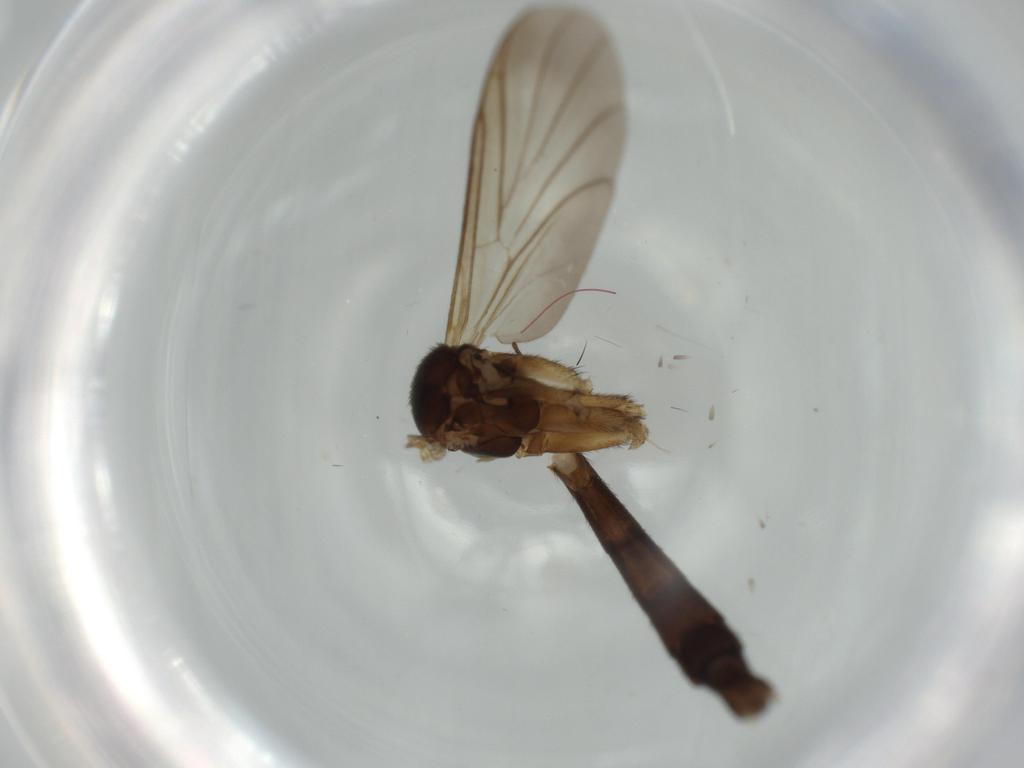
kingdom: Animalia
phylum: Arthropoda
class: Insecta
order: Diptera
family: Keroplatidae
